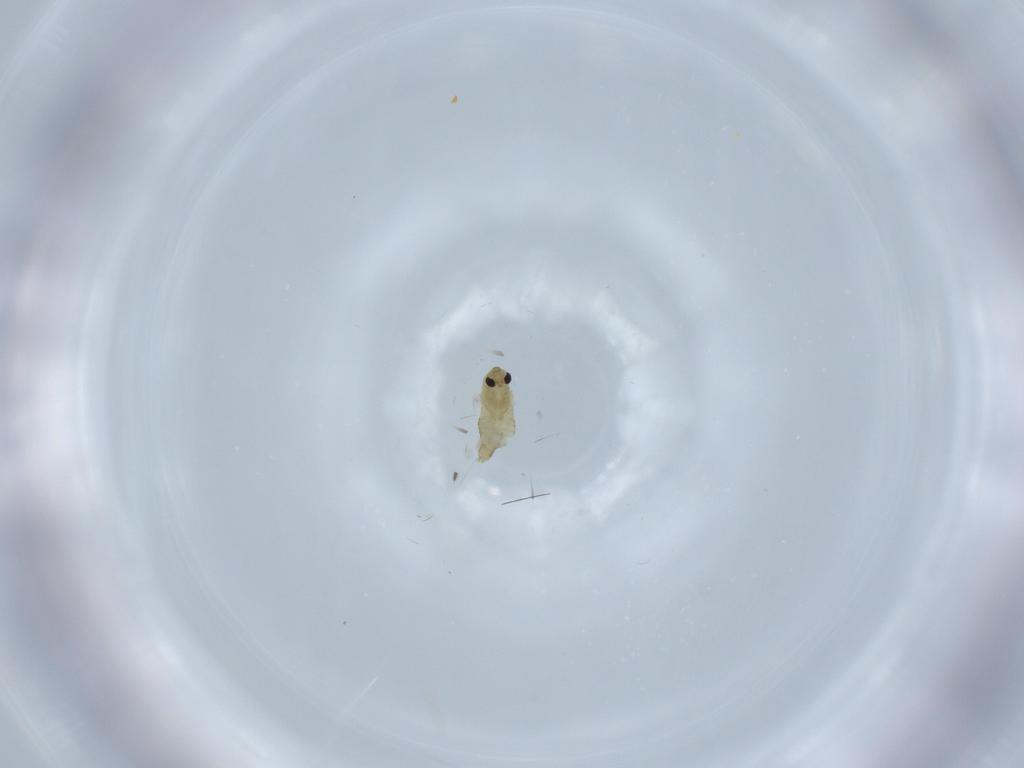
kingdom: Animalia
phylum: Arthropoda
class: Insecta
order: Diptera
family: Chironomidae
